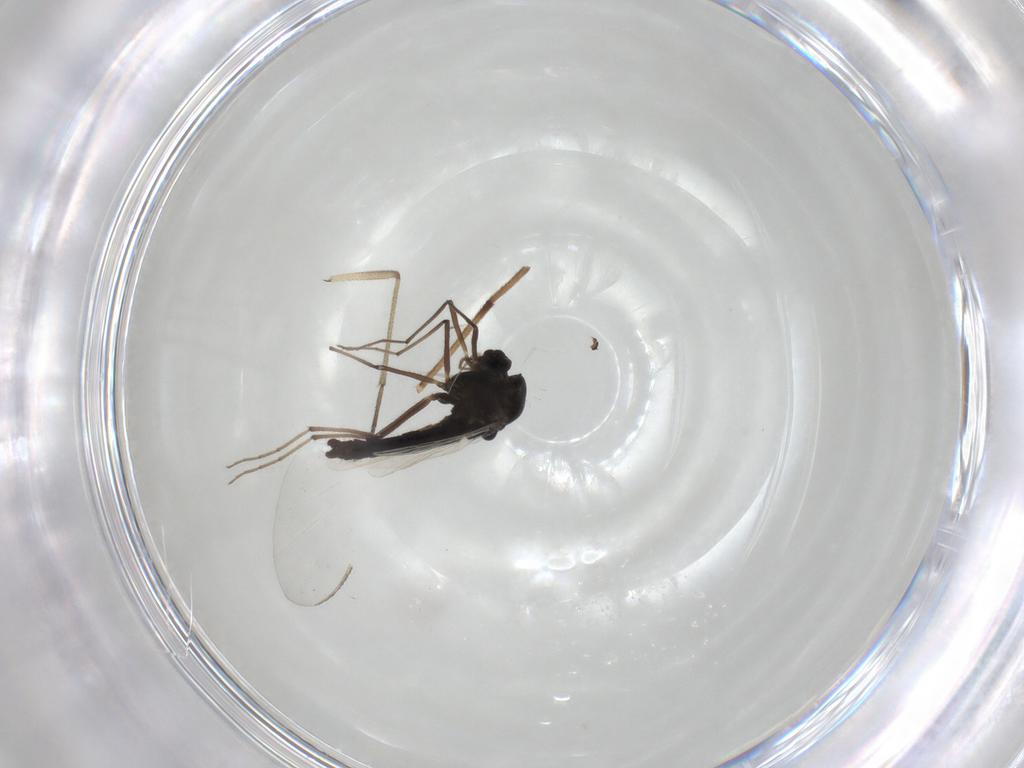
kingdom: Animalia
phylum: Arthropoda
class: Insecta
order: Diptera
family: Chironomidae
